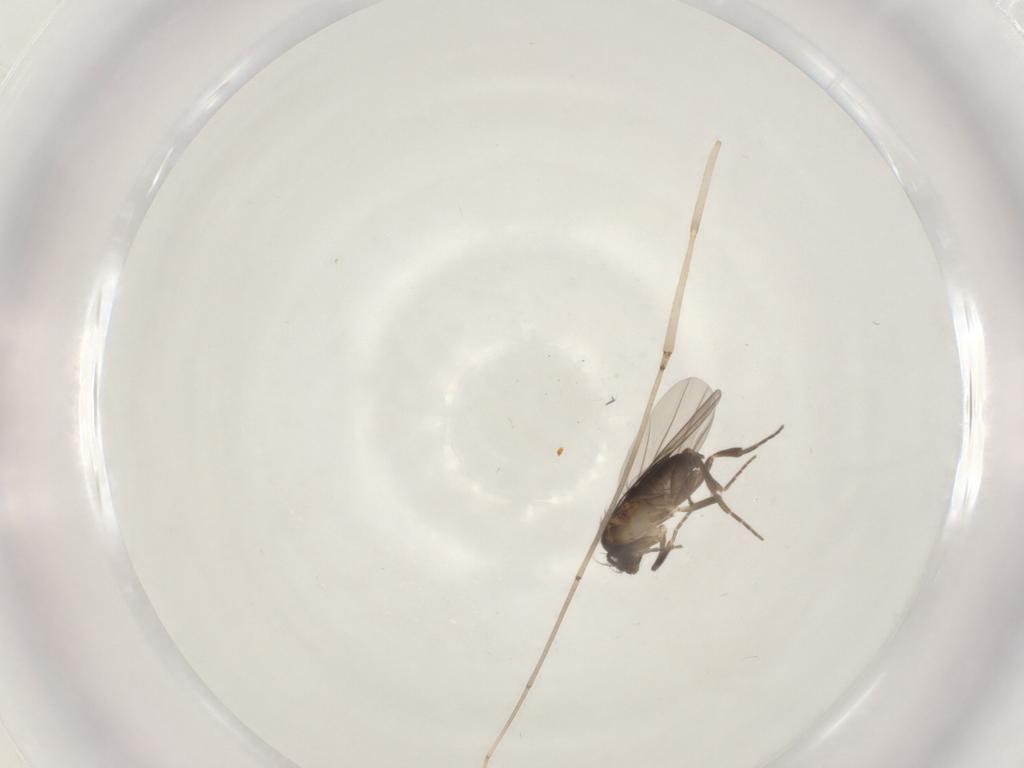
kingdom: Animalia
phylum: Arthropoda
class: Insecta
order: Diptera
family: Phoridae
